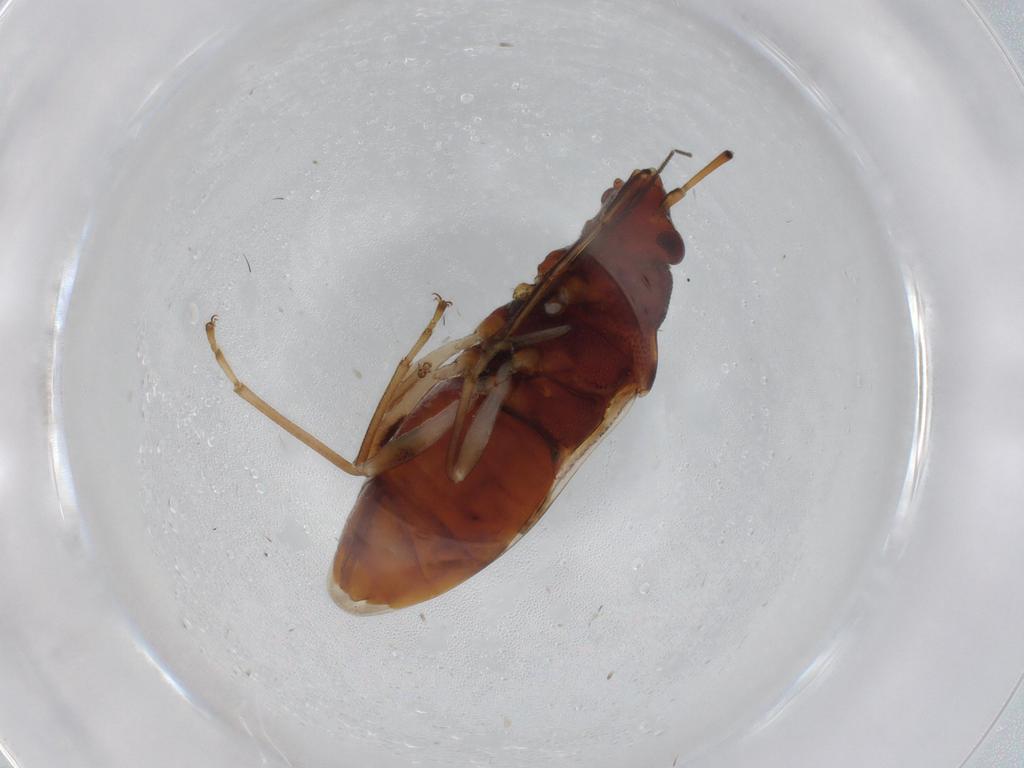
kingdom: Animalia
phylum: Arthropoda
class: Insecta
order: Hemiptera
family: Rhyparochromidae
